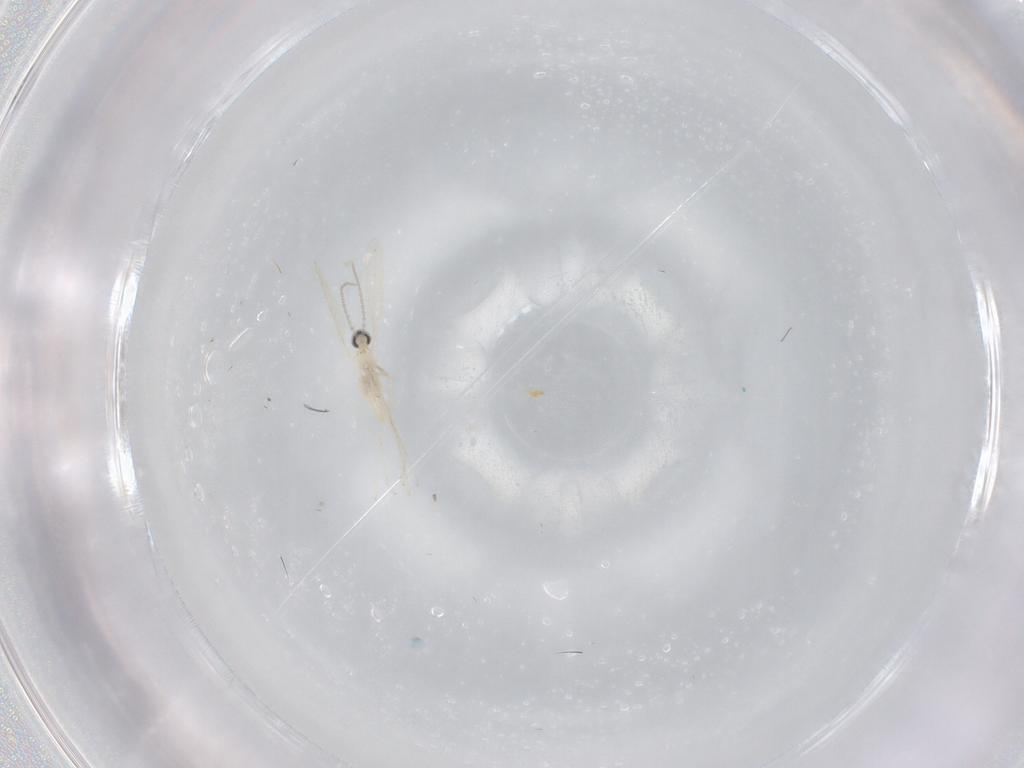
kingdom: Animalia
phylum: Arthropoda
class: Insecta
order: Diptera
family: Cecidomyiidae
